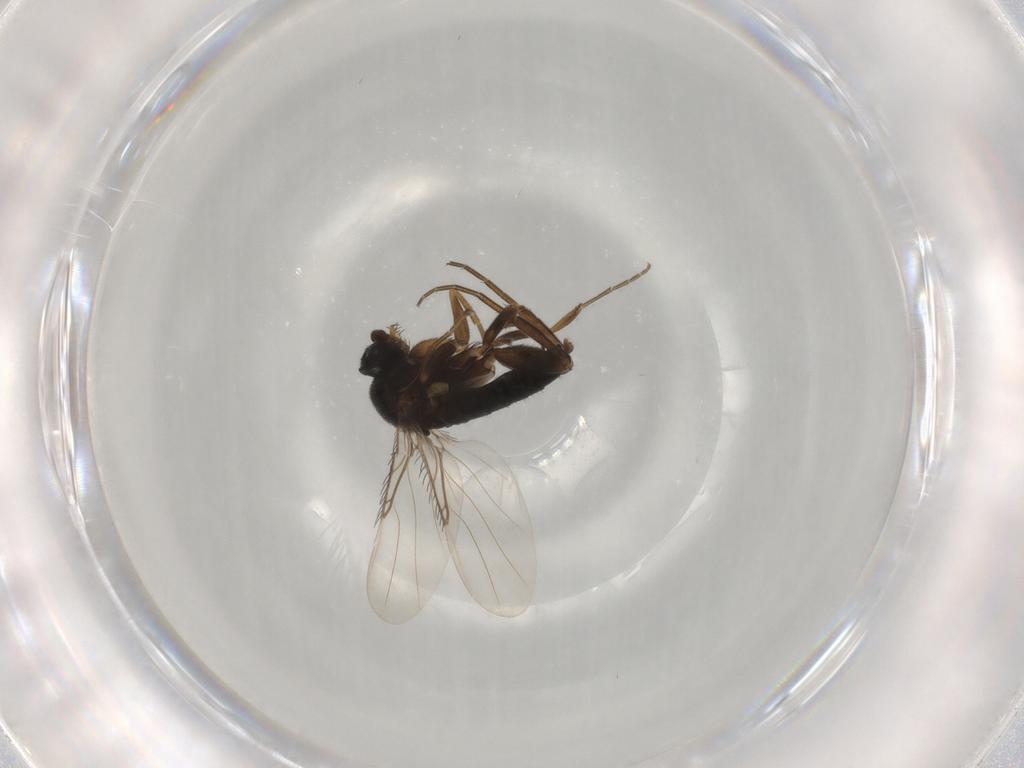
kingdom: Animalia
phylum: Arthropoda
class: Insecta
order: Diptera
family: Phoridae
